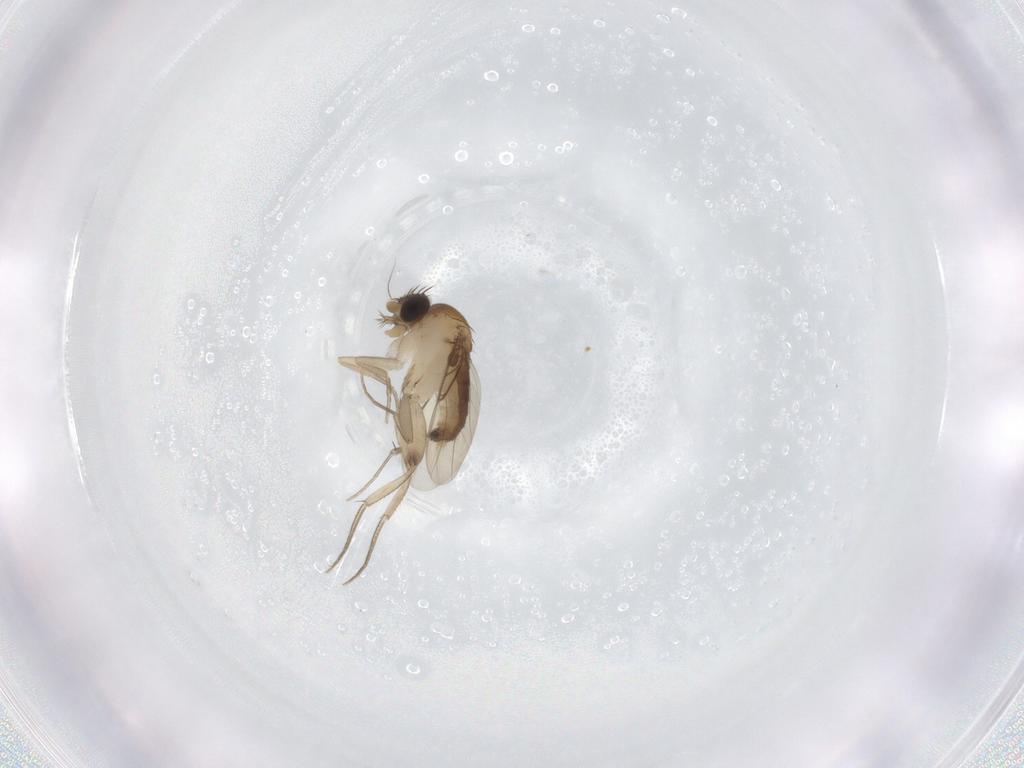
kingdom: Animalia
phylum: Arthropoda
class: Insecta
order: Diptera
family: Phoridae
